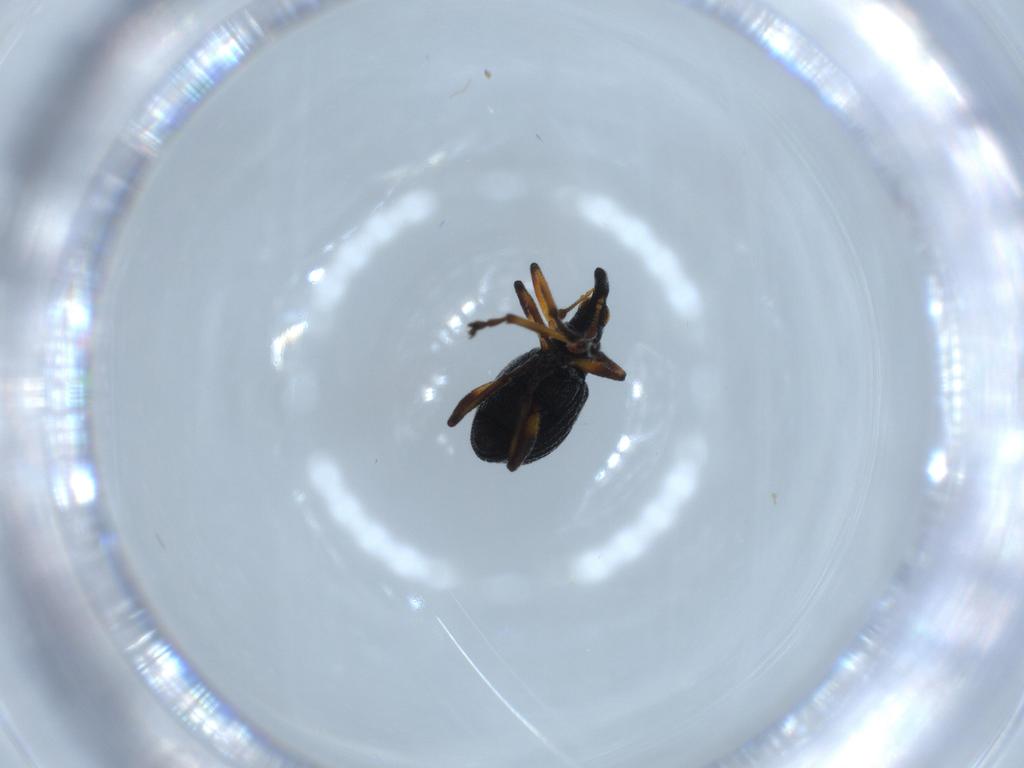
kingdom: Animalia
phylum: Arthropoda
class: Insecta
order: Coleoptera
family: Brentidae
